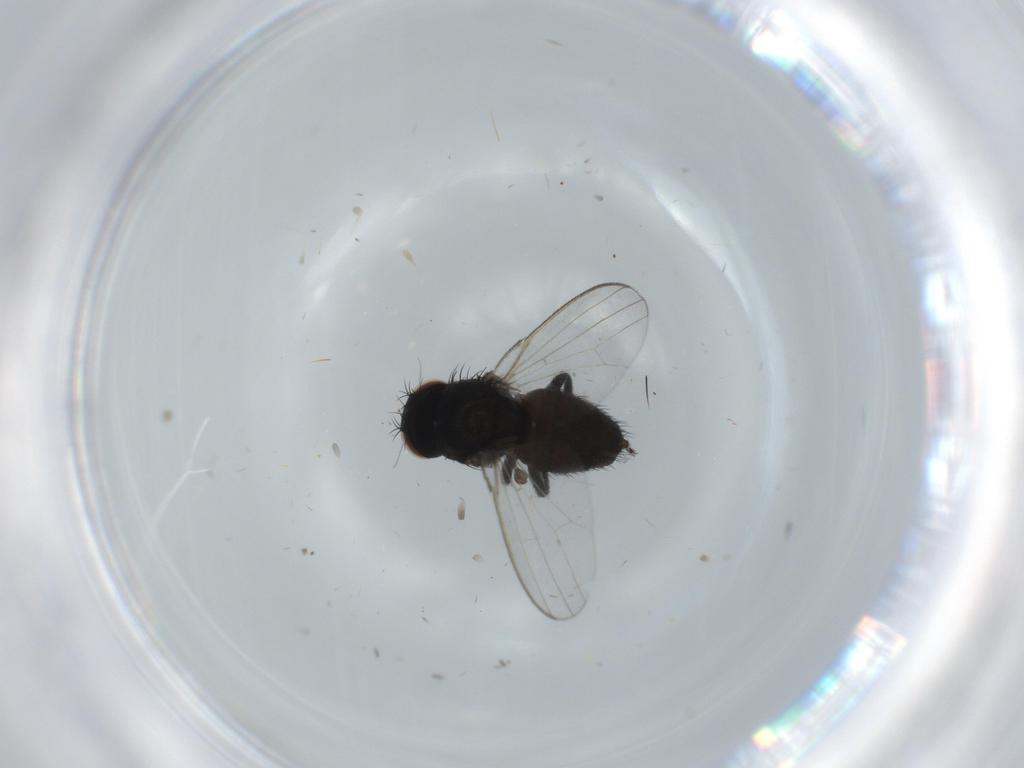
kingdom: Animalia
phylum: Arthropoda
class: Insecta
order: Diptera
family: Milichiidae
